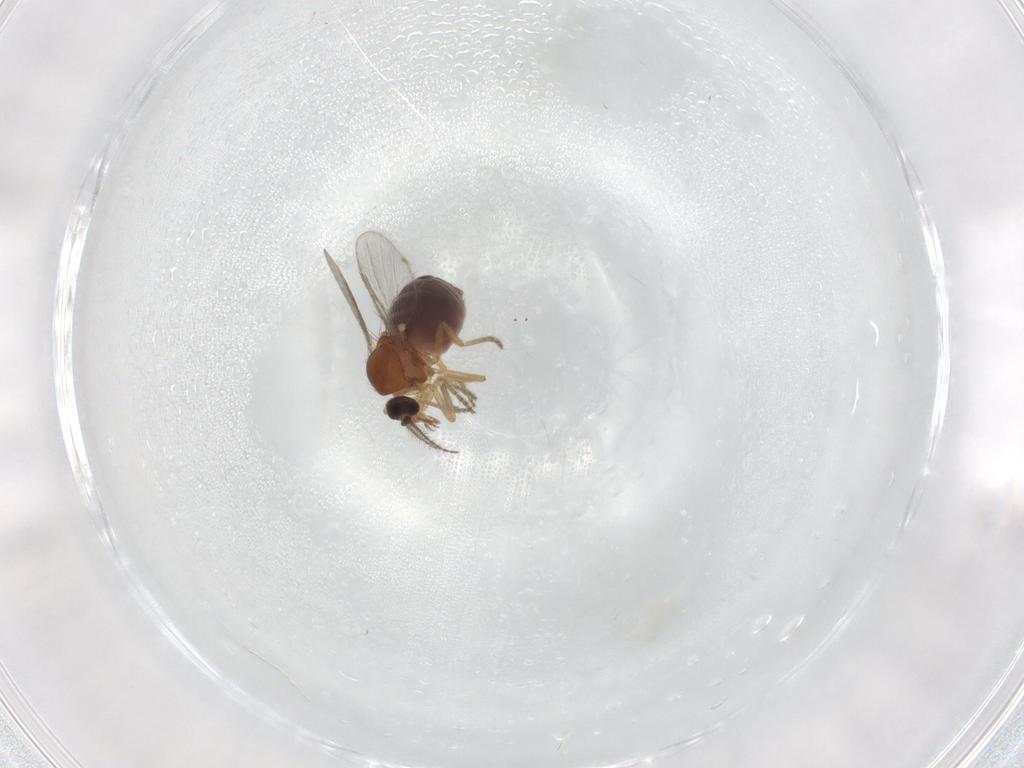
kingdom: Animalia
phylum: Arthropoda
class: Insecta
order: Diptera
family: Ceratopogonidae
